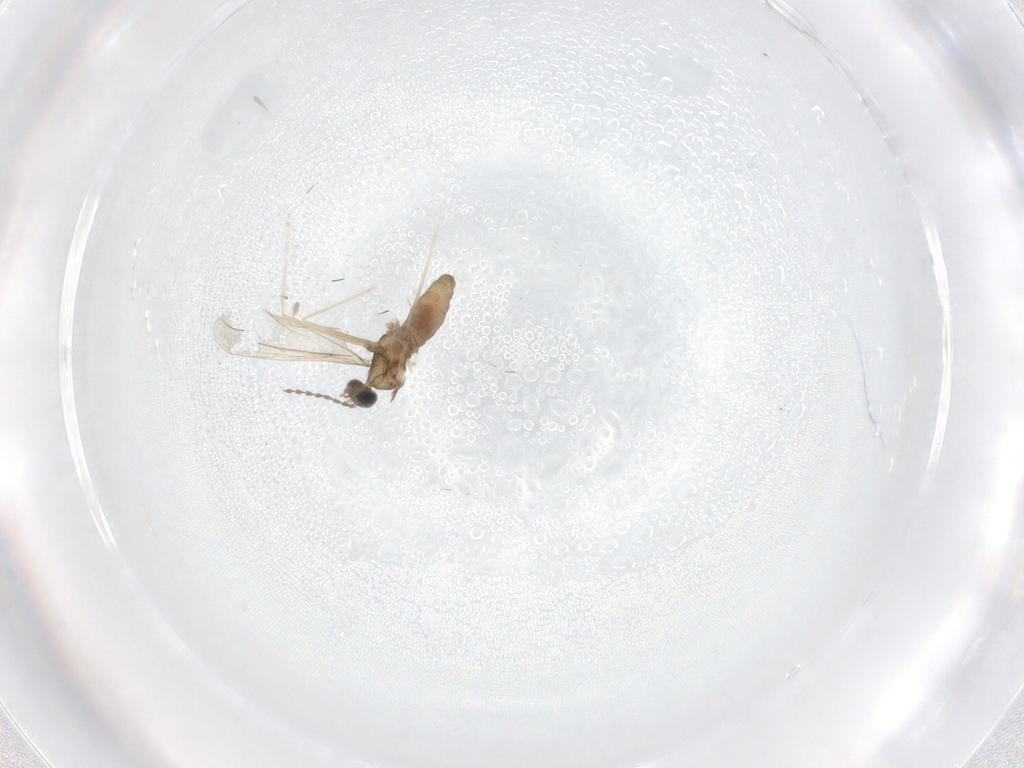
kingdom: Animalia
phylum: Arthropoda
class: Insecta
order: Diptera
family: Cecidomyiidae
